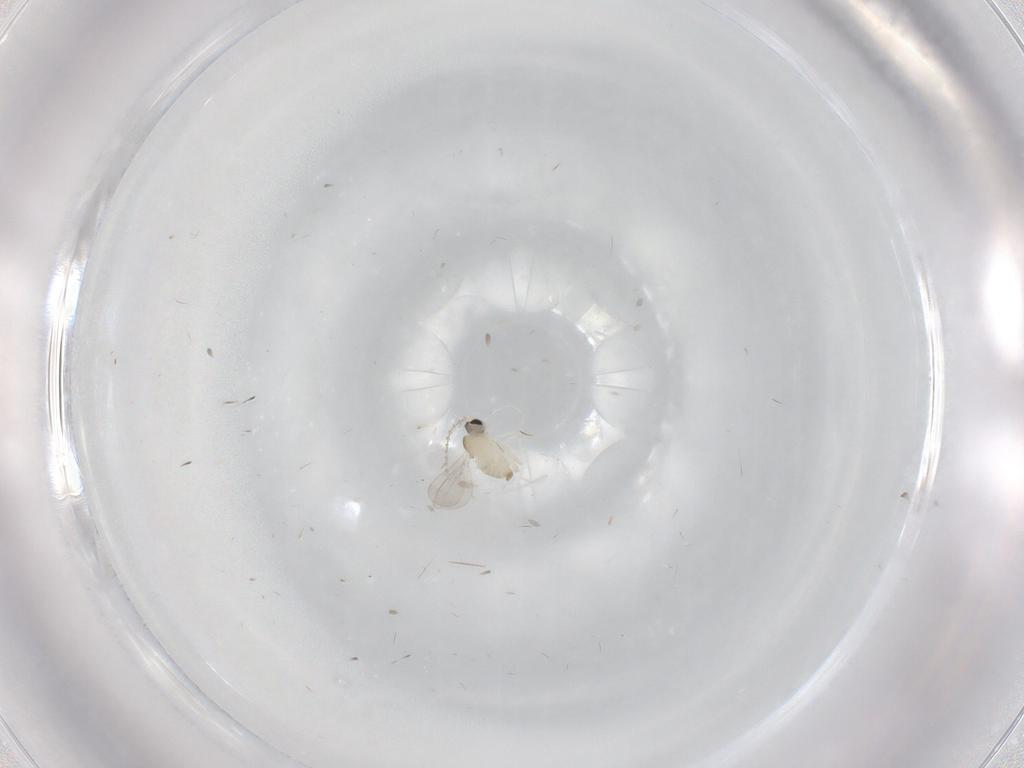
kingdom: Animalia
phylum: Arthropoda
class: Insecta
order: Diptera
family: Cecidomyiidae
